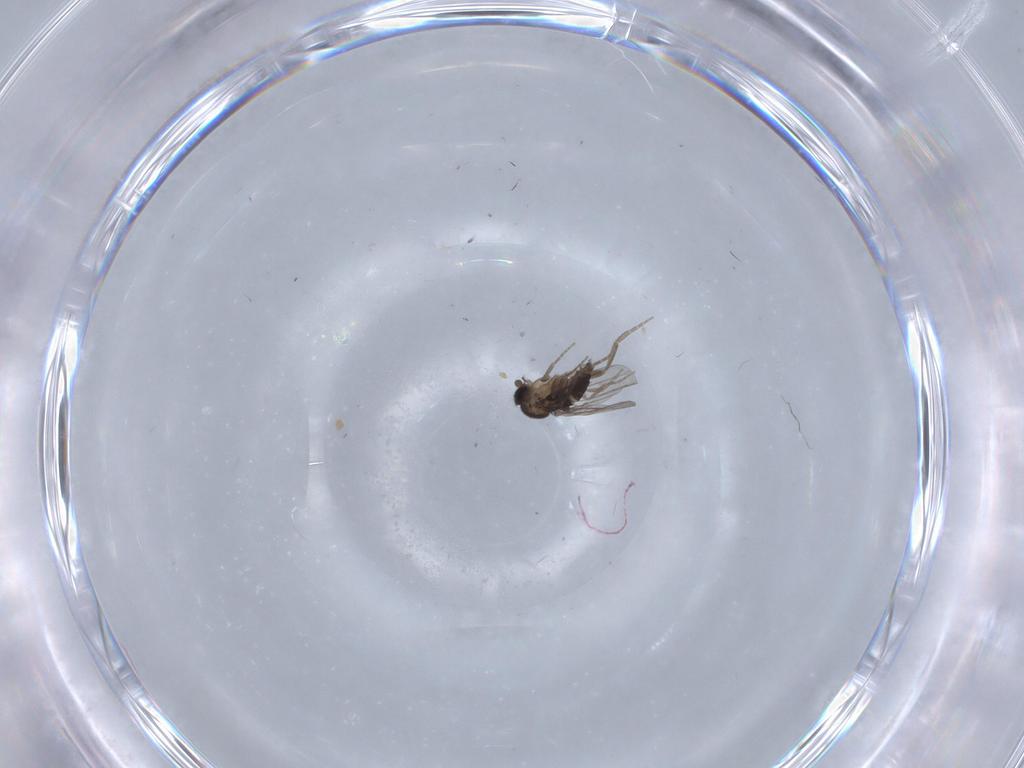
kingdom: Animalia
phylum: Arthropoda
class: Insecta
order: Diptera
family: Phoridae
